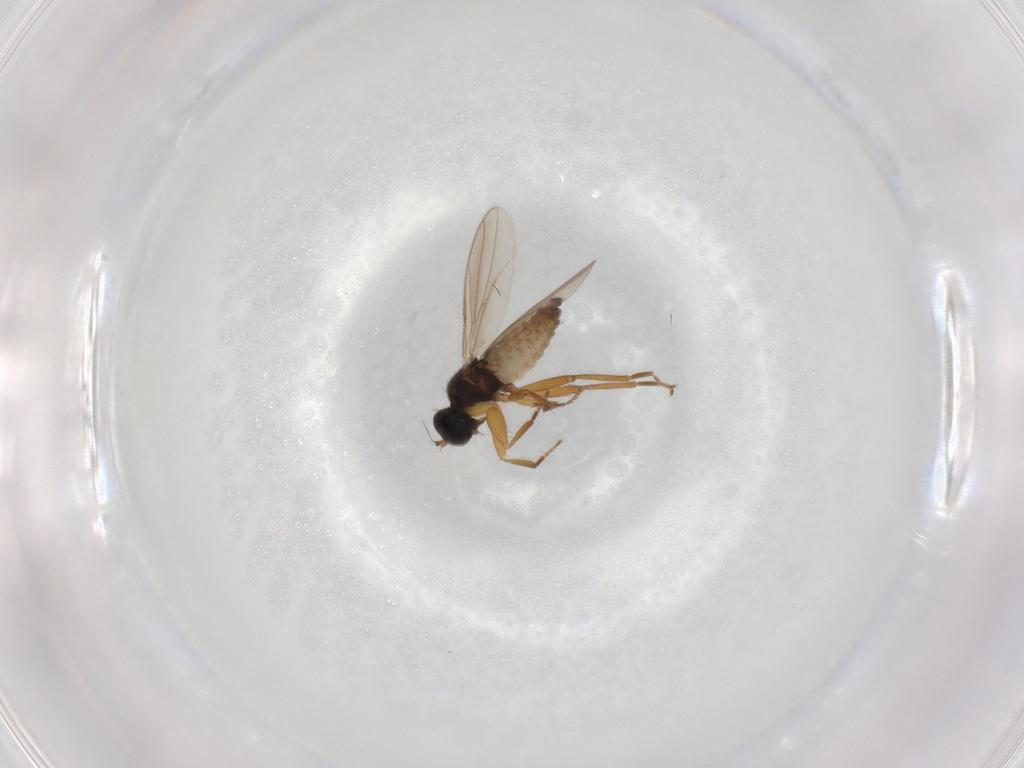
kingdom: Animalia
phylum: Arthropoda
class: Insecta
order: Diptera
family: Hybotidae
